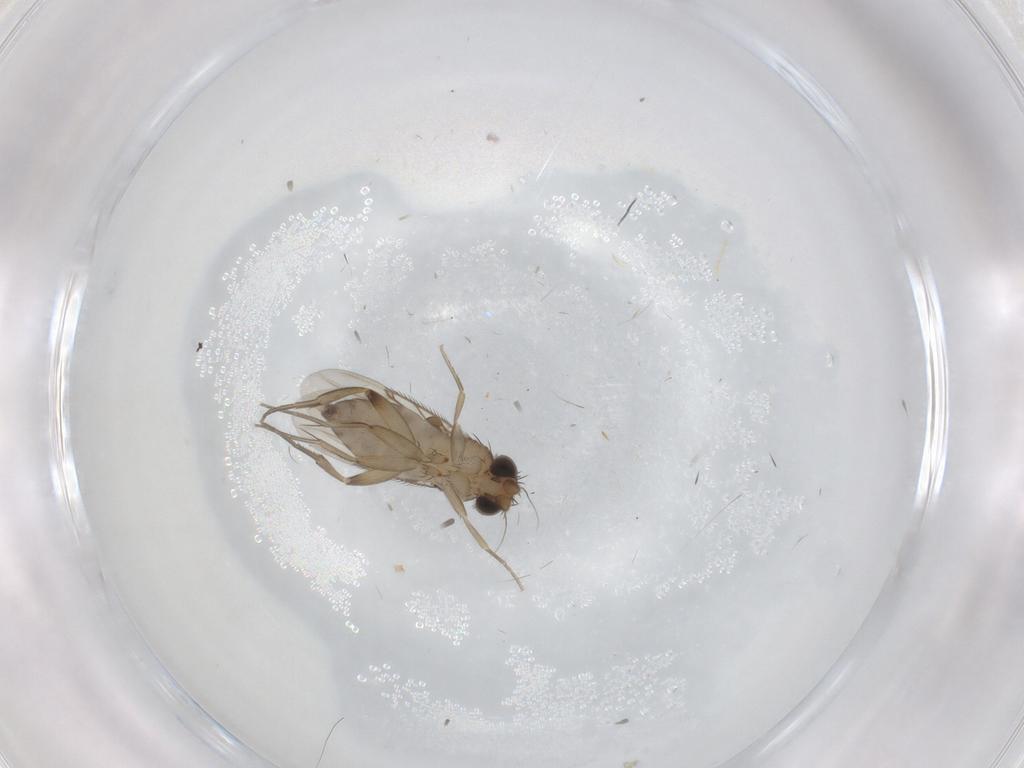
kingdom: Animalia
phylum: Arthropoda
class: Insecta
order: Diptera
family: Phoridae
